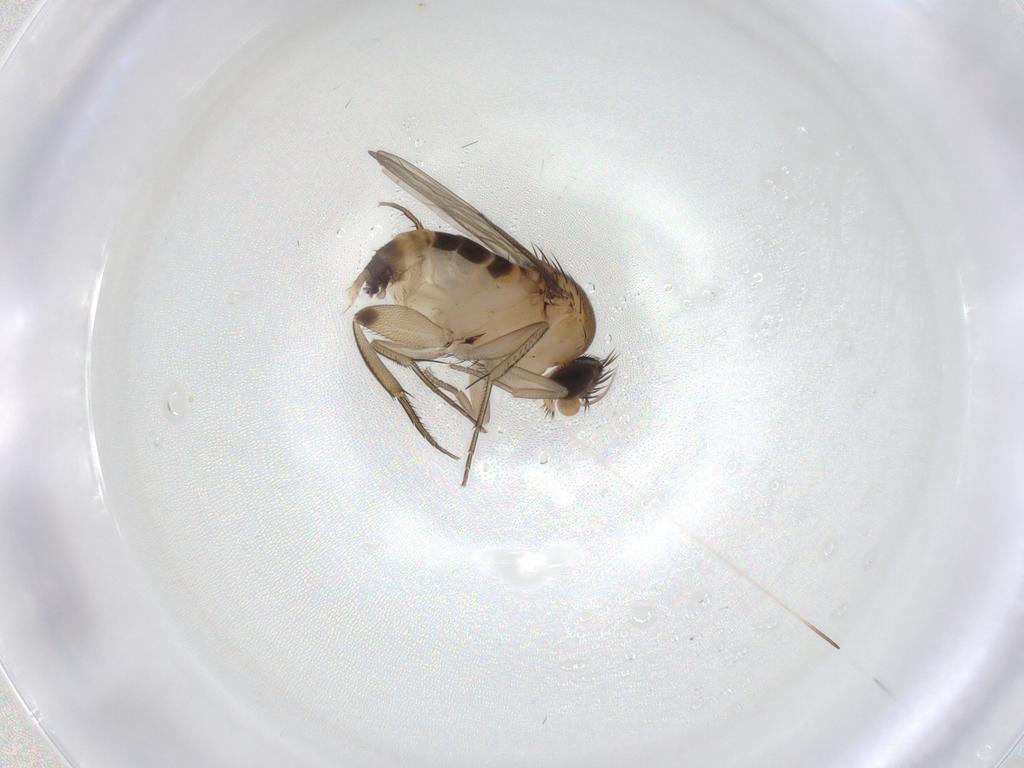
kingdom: Animalia
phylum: Arthropoda
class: Insecta
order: Diptera
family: Phoridae
